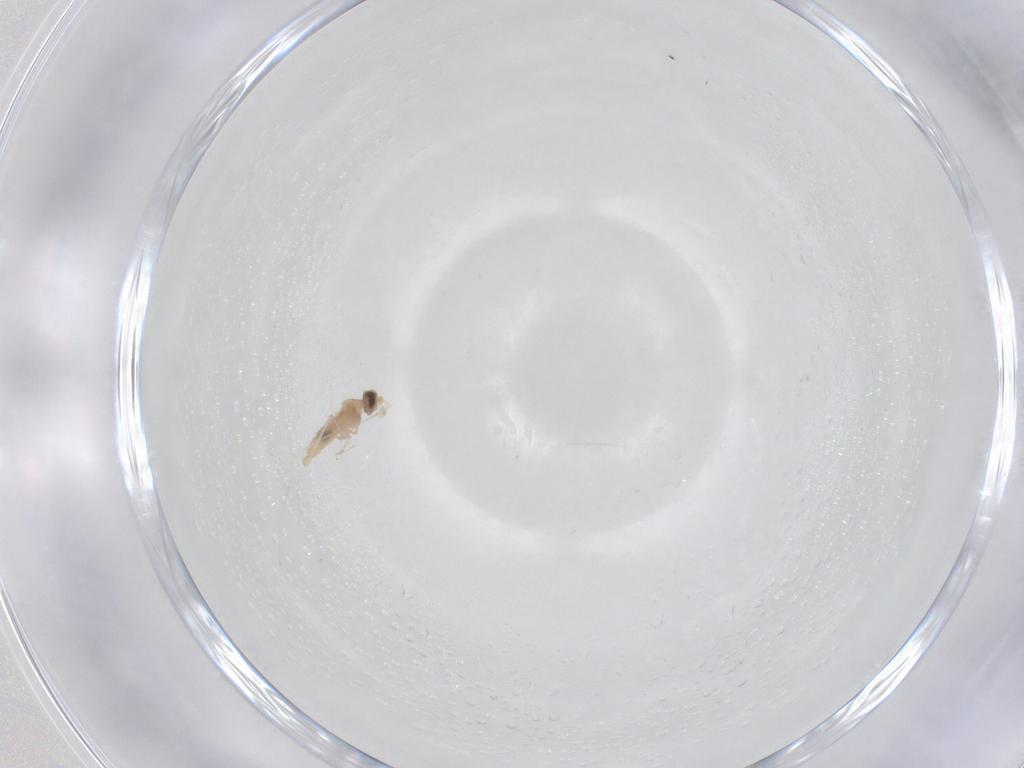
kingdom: Animalia
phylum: Arthropoda
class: Insecta
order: Diptera
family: Cecidomyiidae
